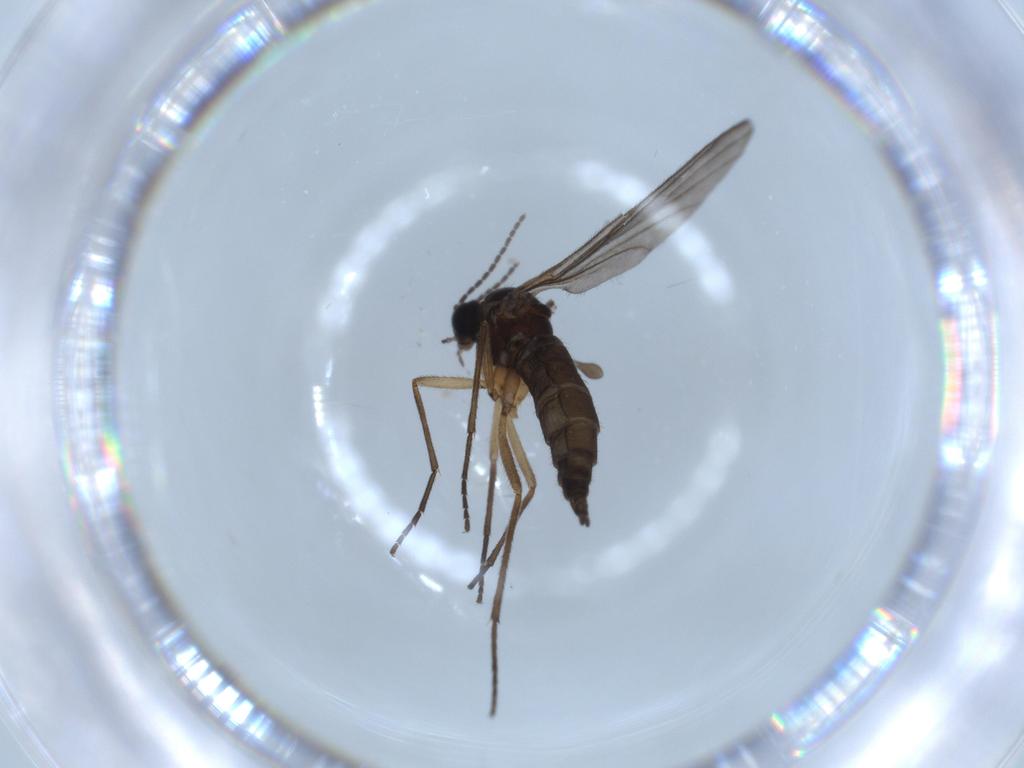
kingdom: Animalia
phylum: Arthropoda
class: Insecta
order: Diptera
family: Sciaridae
